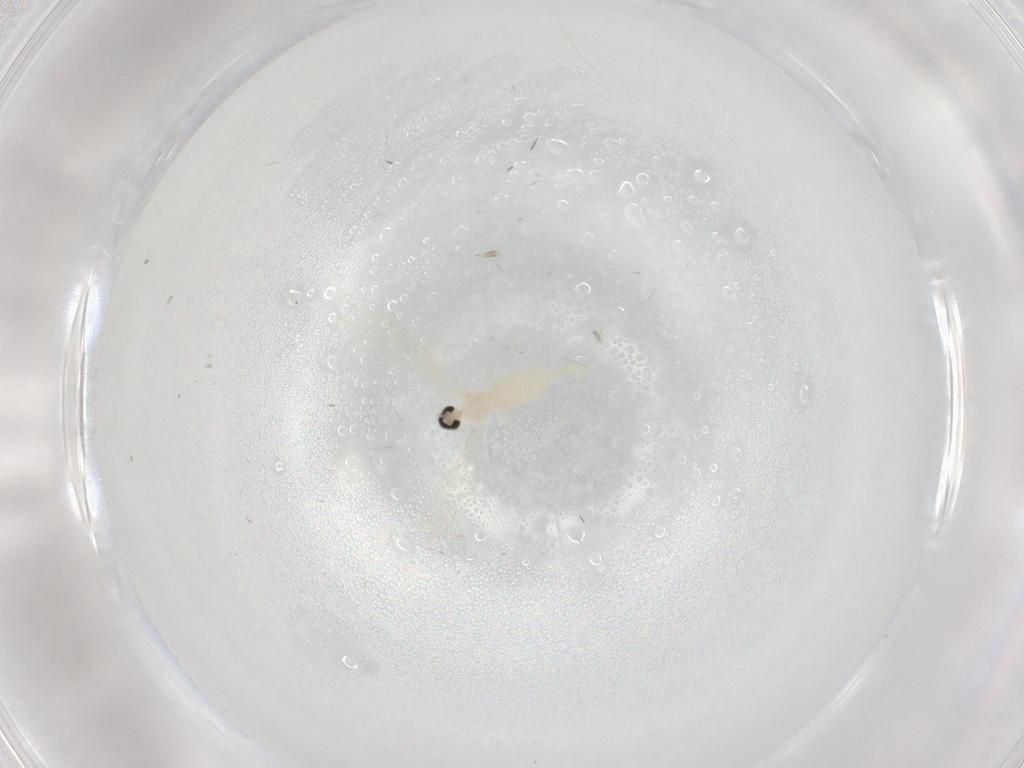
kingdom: Animalia
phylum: Arthropoda
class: Insecta
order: Diptera
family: Cecidomyiidae
